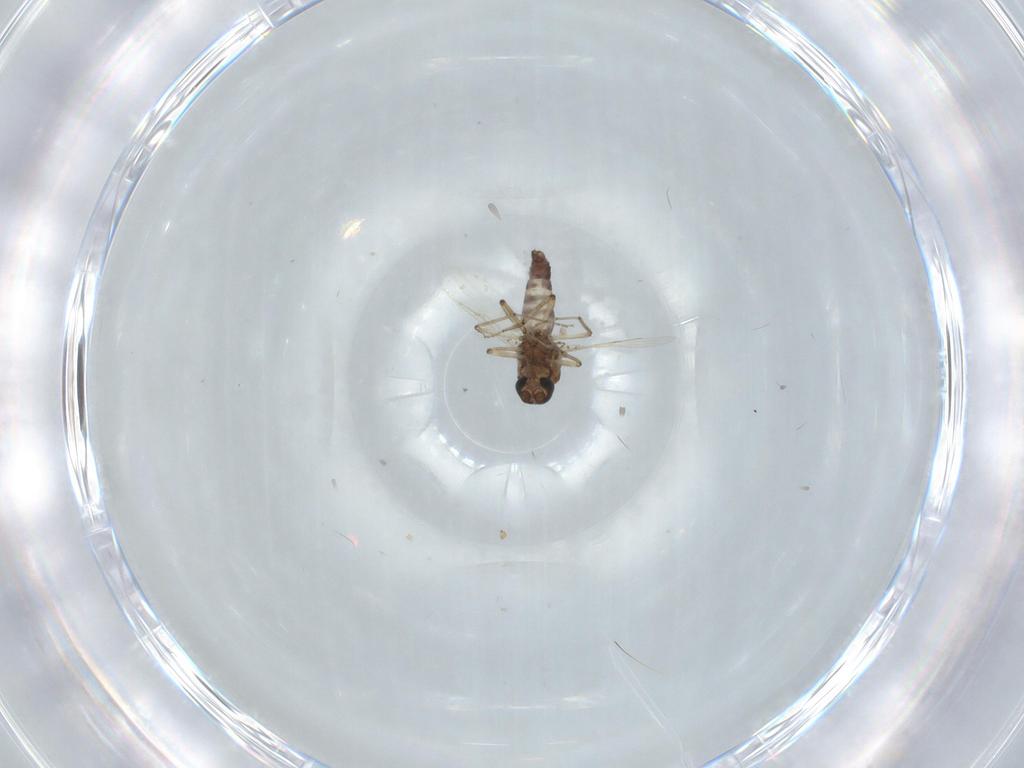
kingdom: Animalia
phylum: Arthropoda
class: Insecta
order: Diptera
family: Ceratopogonidae
